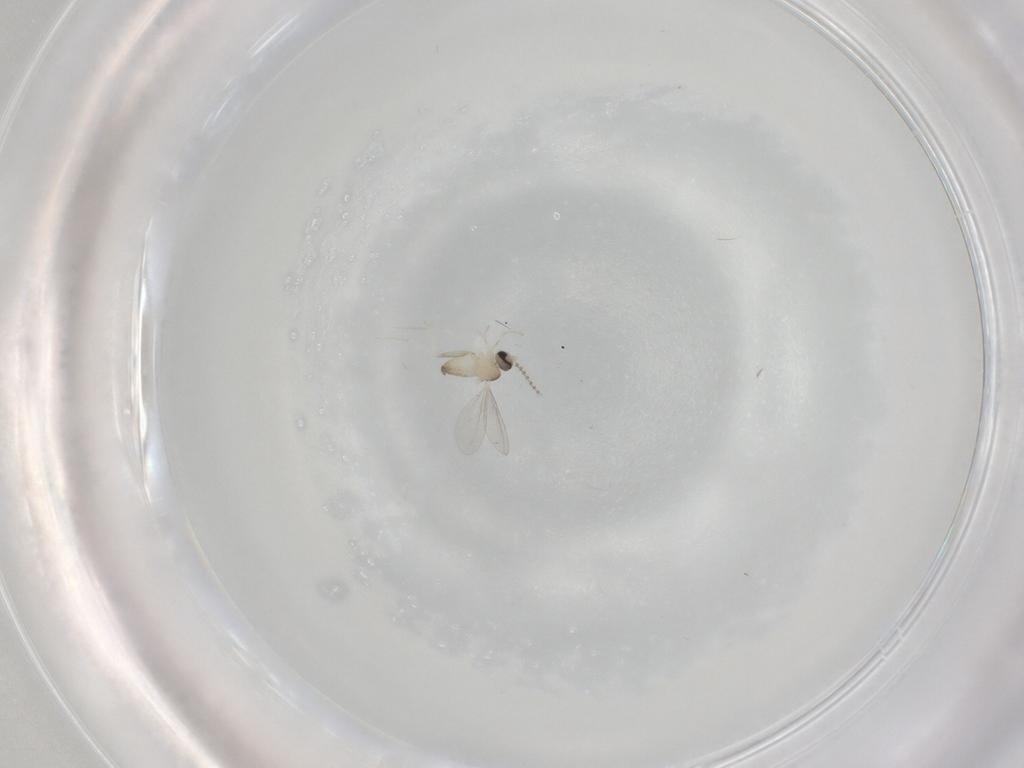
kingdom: Animalia
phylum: Arthropoda
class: Insecta
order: Diptera
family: Cecidomyiidae
